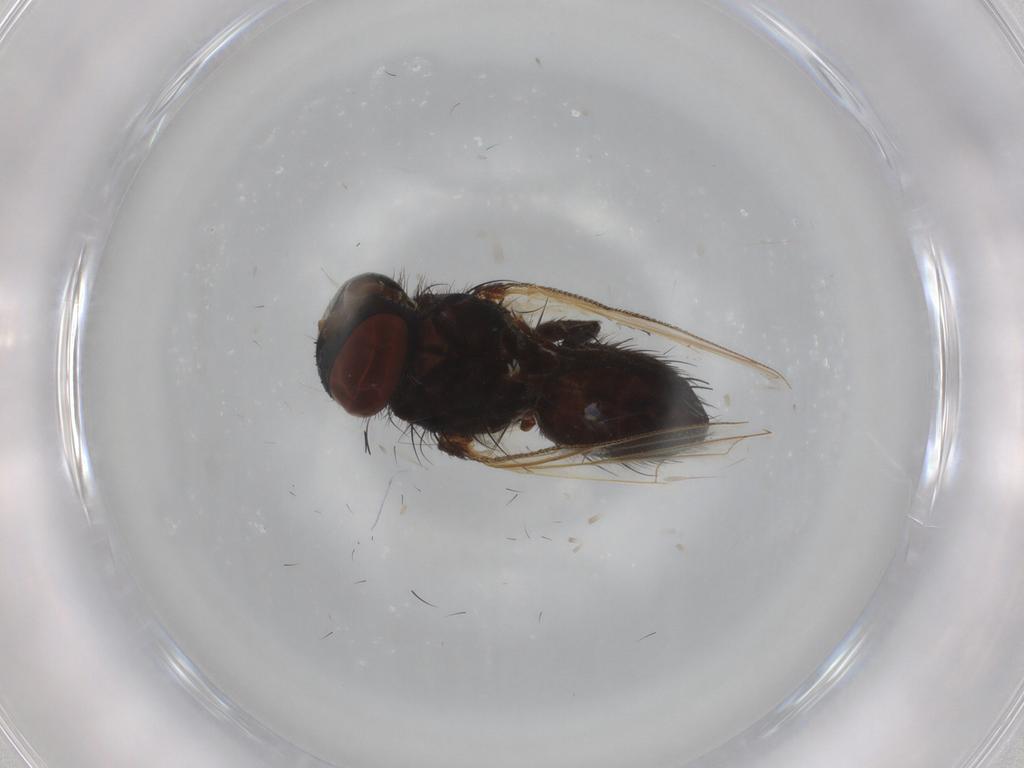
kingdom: Animalia
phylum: Arthropoda
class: Insecta
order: Diptera
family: Tachinidae
